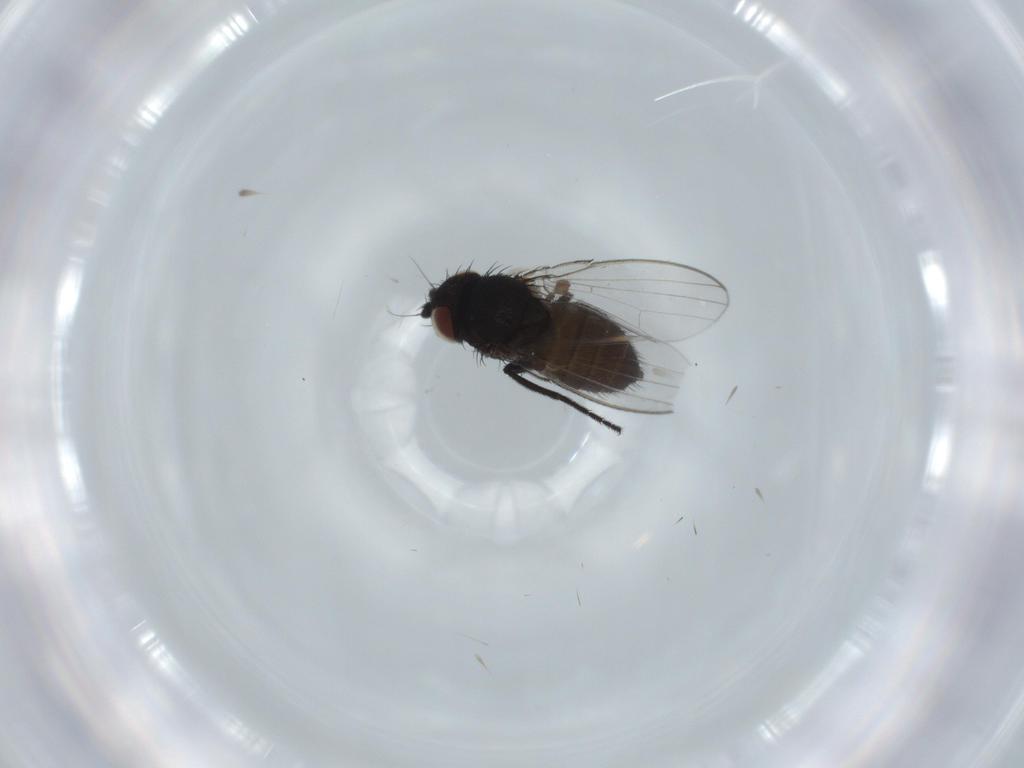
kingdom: Animalia
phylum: Arthropoda
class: Insecta
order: Diptera
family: Milichiidae
